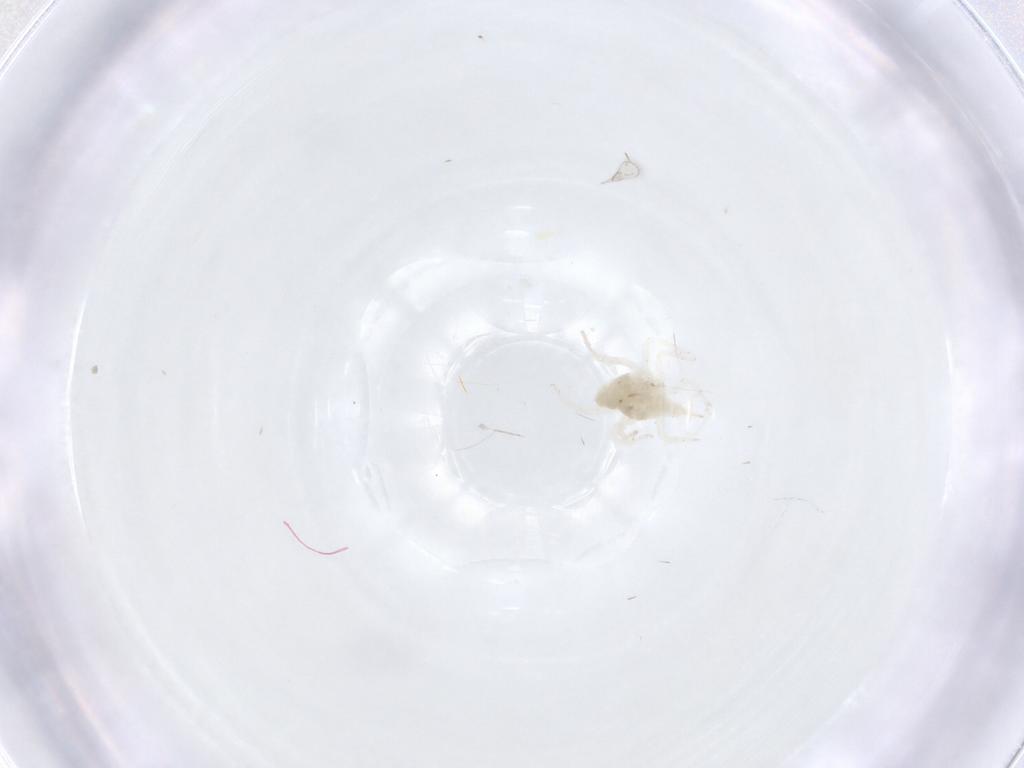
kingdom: Animalia
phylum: Arthropoda
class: Arachnida
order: Trombidiformes
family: Bdellidae
